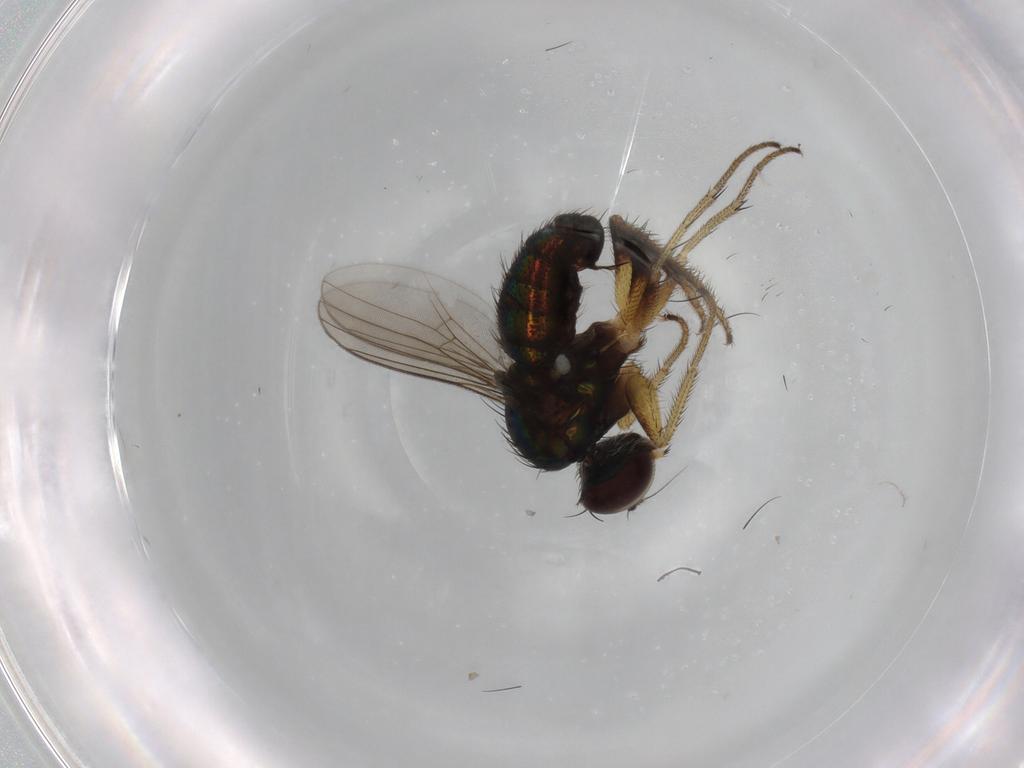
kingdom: Animalia
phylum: Arthropoda
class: Insecta
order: Diptera
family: Dolichopodidae
